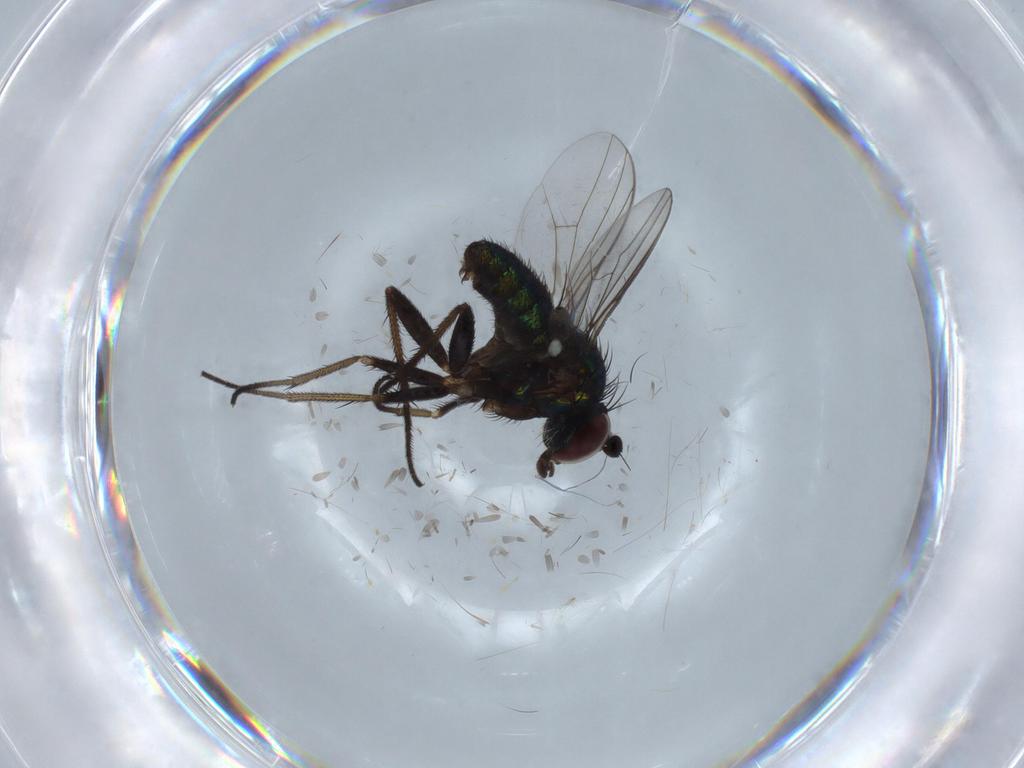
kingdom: Animalia
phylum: Arthropoda
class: Insecta
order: Diptera
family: Dolichopodidae
